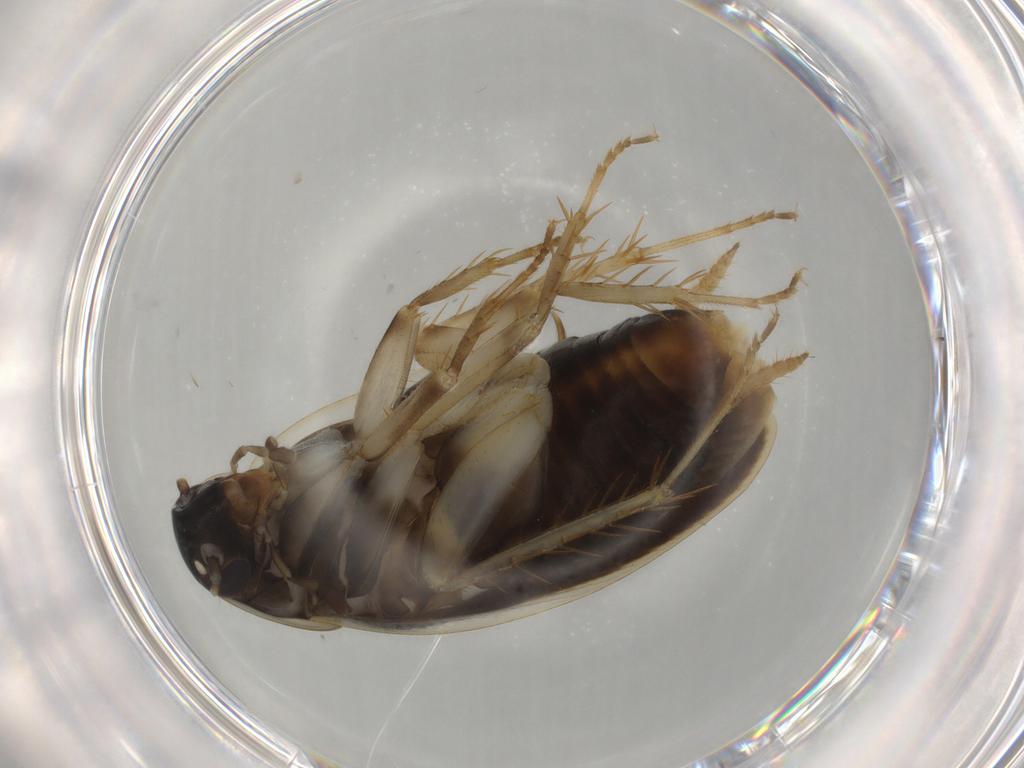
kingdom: Animalia
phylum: Arthropoda
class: Insecta
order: Blattodea
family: Ectobiidae
